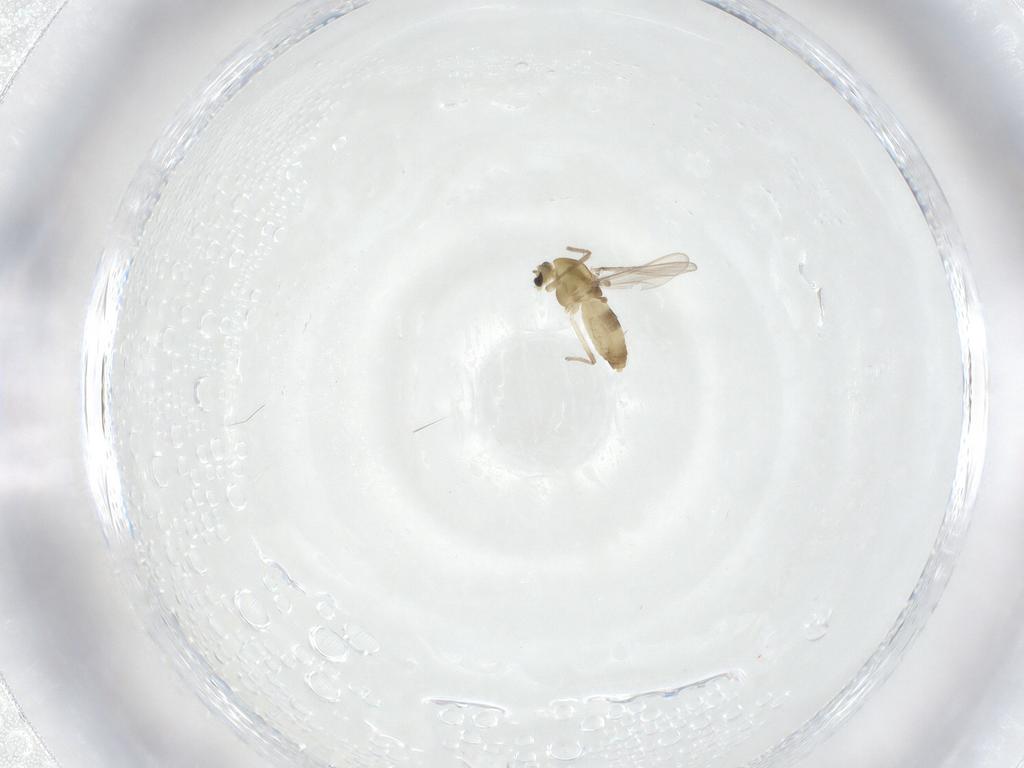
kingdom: Animalia
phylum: Arthropoda
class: Insecta
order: Diptera
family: Chironomidae
